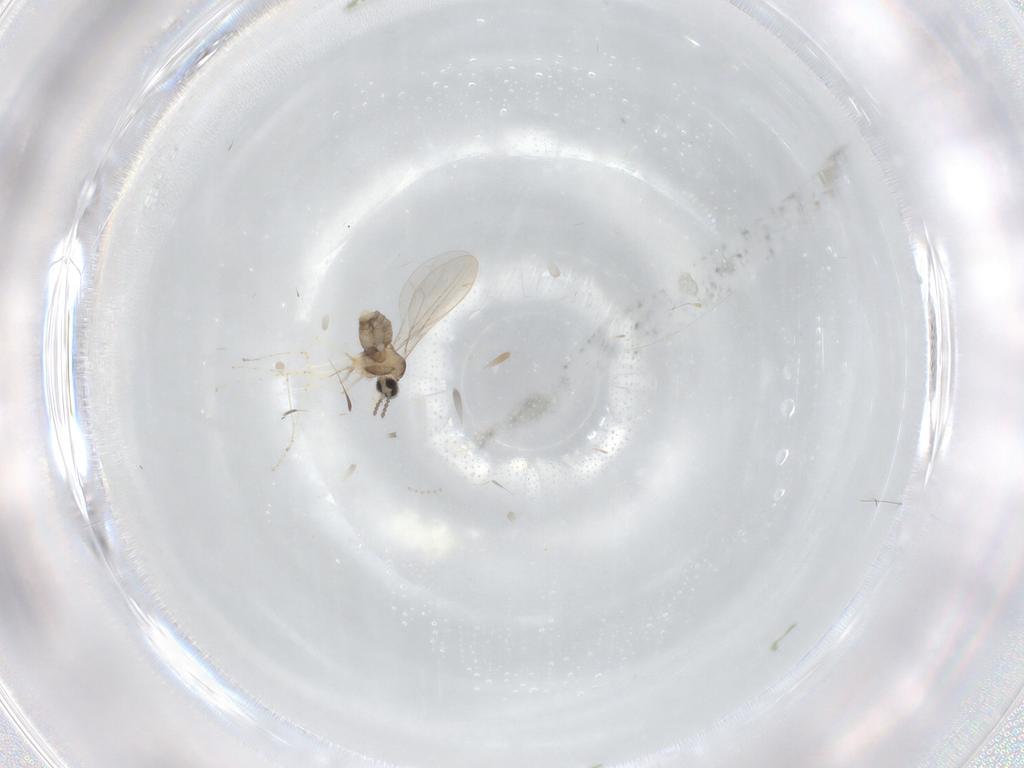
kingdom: Animalia
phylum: Arthropoda
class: Insecta
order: Diptera
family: Cecidomyiidae
